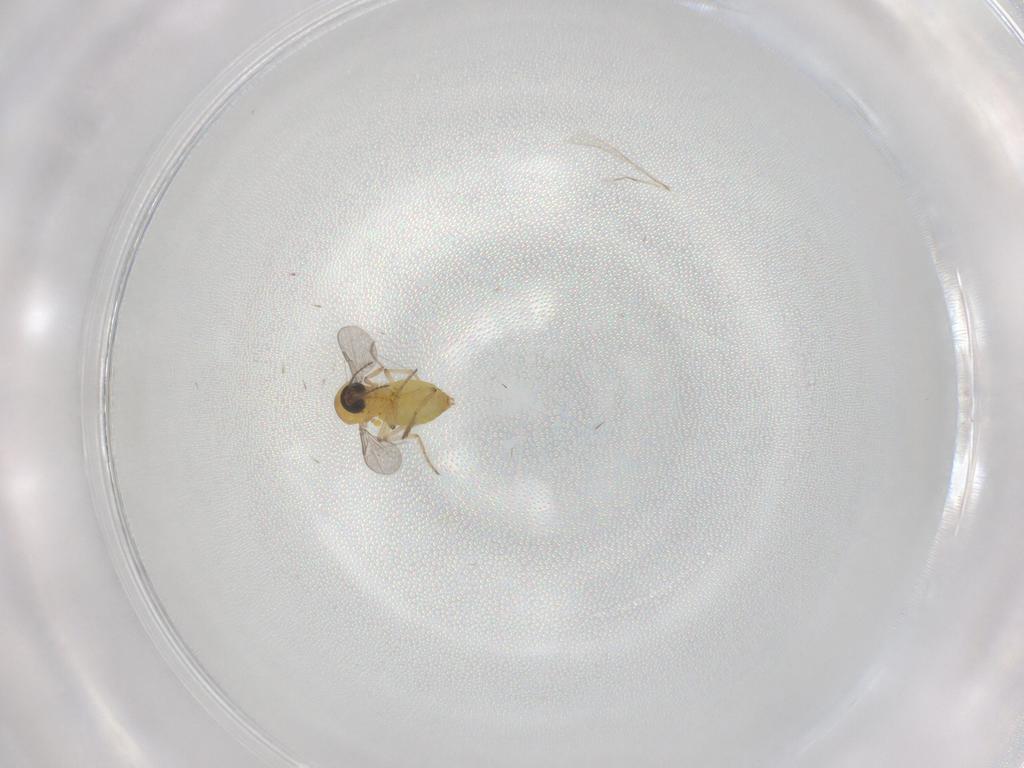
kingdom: Animalia
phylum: Arthropoda
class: Insecta
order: Diptera
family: Ceratopogonidae
